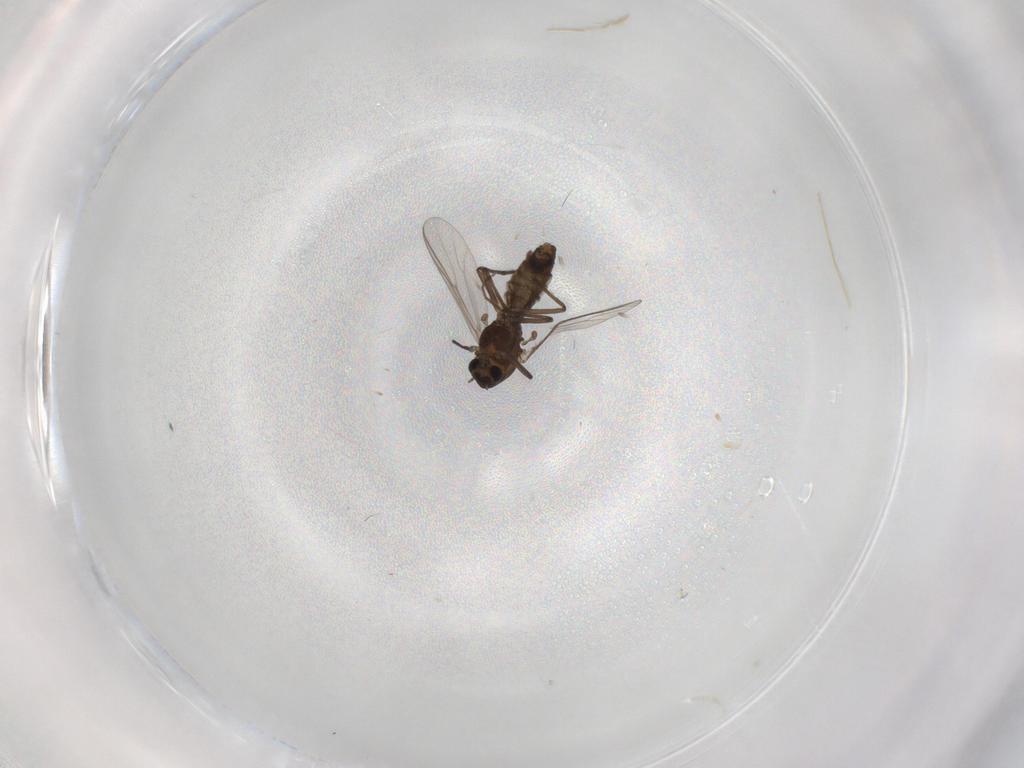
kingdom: Animalia
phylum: Arthropoda
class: Insecta
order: Diptera
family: Chironomidae
